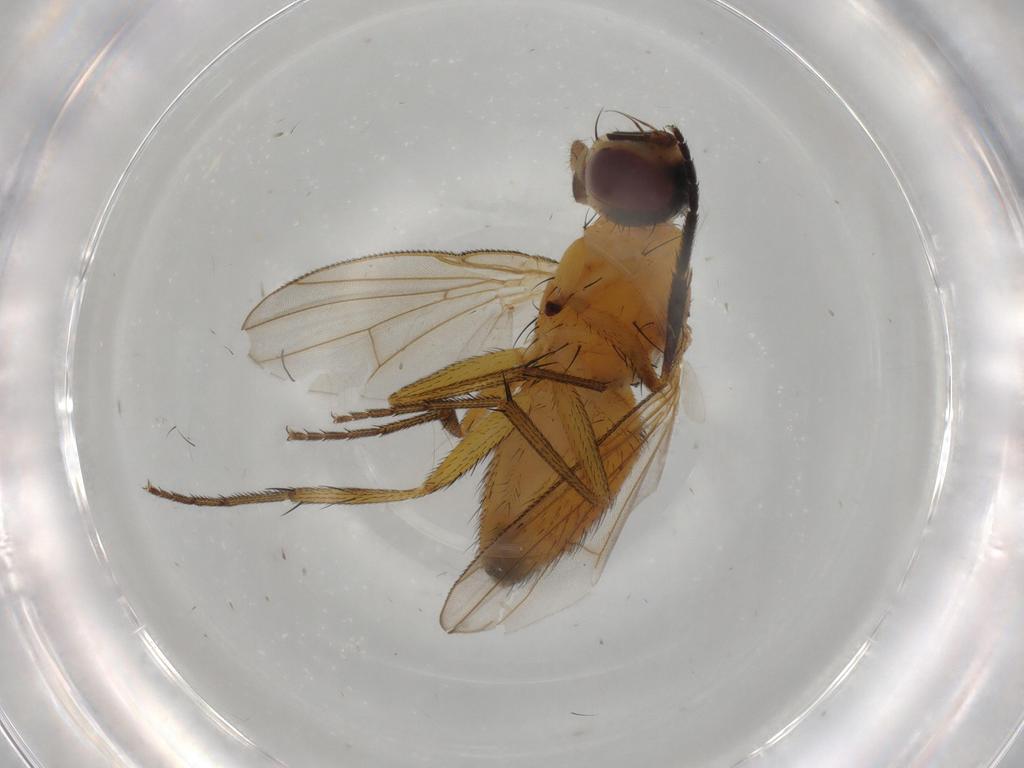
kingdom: Animalia
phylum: Arthropoda
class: Insecta
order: Diptera
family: Muscidae
